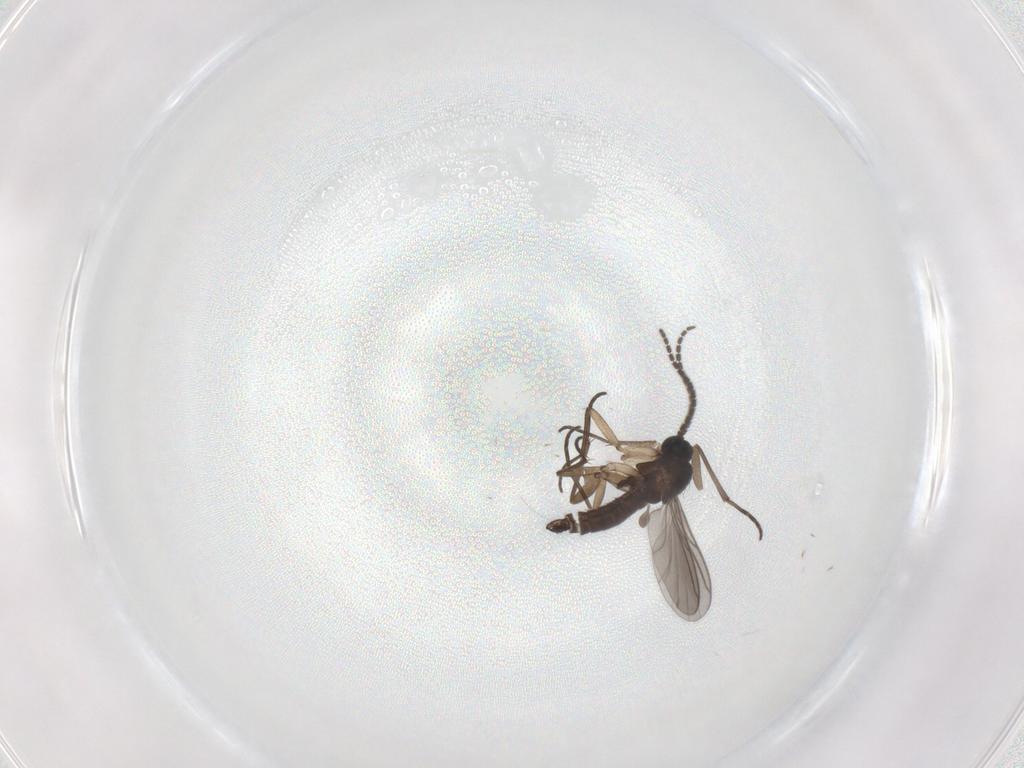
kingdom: Animalia
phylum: Arthropoda
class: Insecta
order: Diptera
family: Sciaridae
